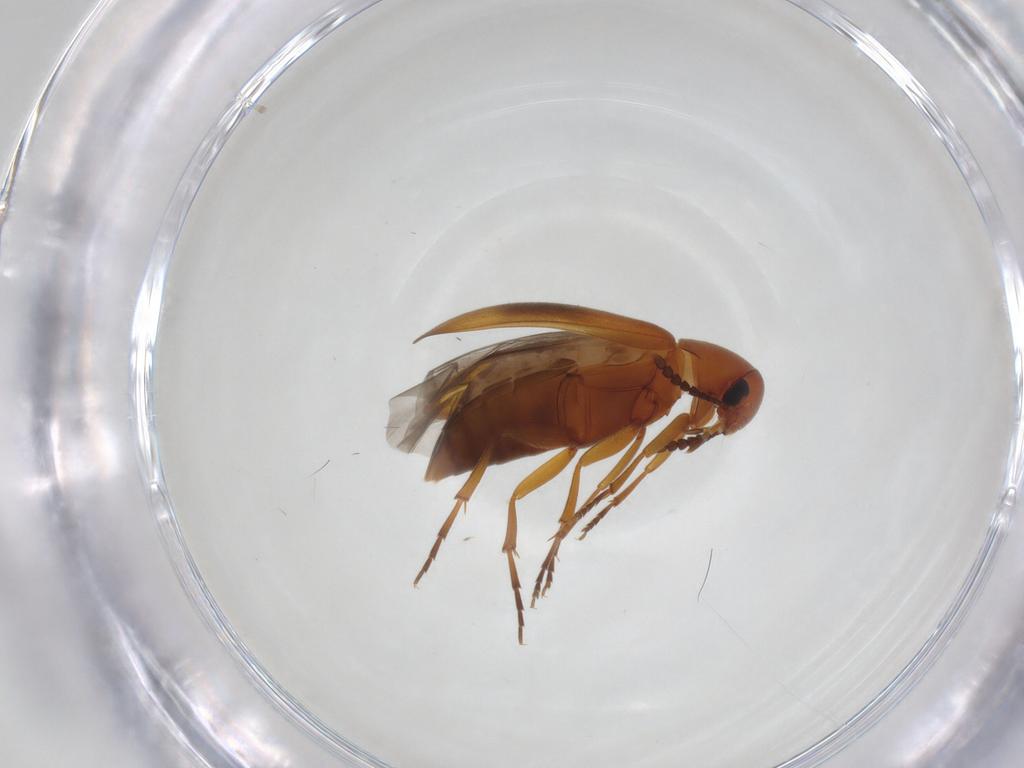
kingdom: Animalia
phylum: Arthropoda
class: Insecta
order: Coleoptera
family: Scraptiidae
